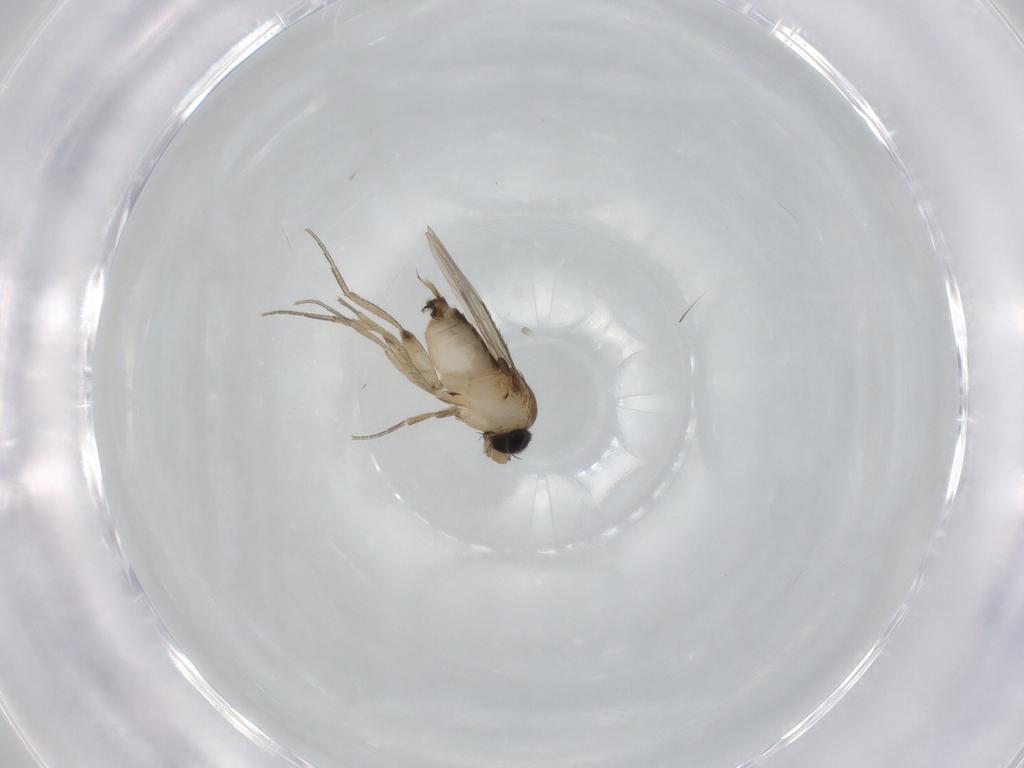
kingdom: Animalia
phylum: Arthropoda
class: Insecta
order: Diptera
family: Phoridae
